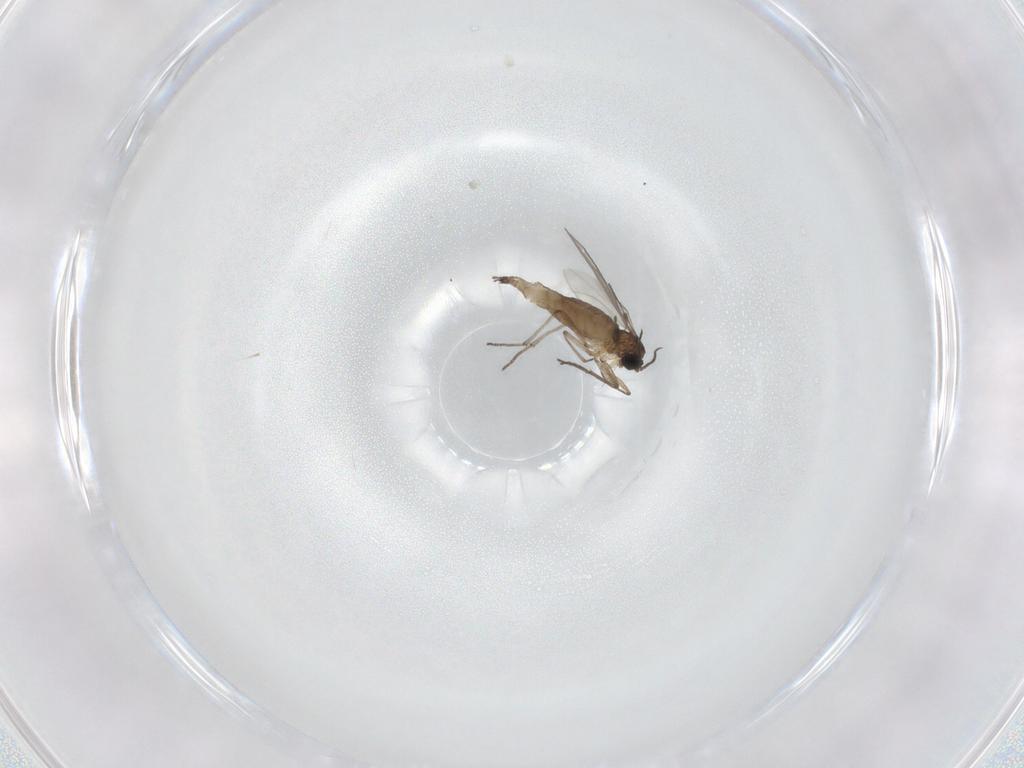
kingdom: Animalia
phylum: Arthropoda
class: Insecta
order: Diptera
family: Sciaridae
